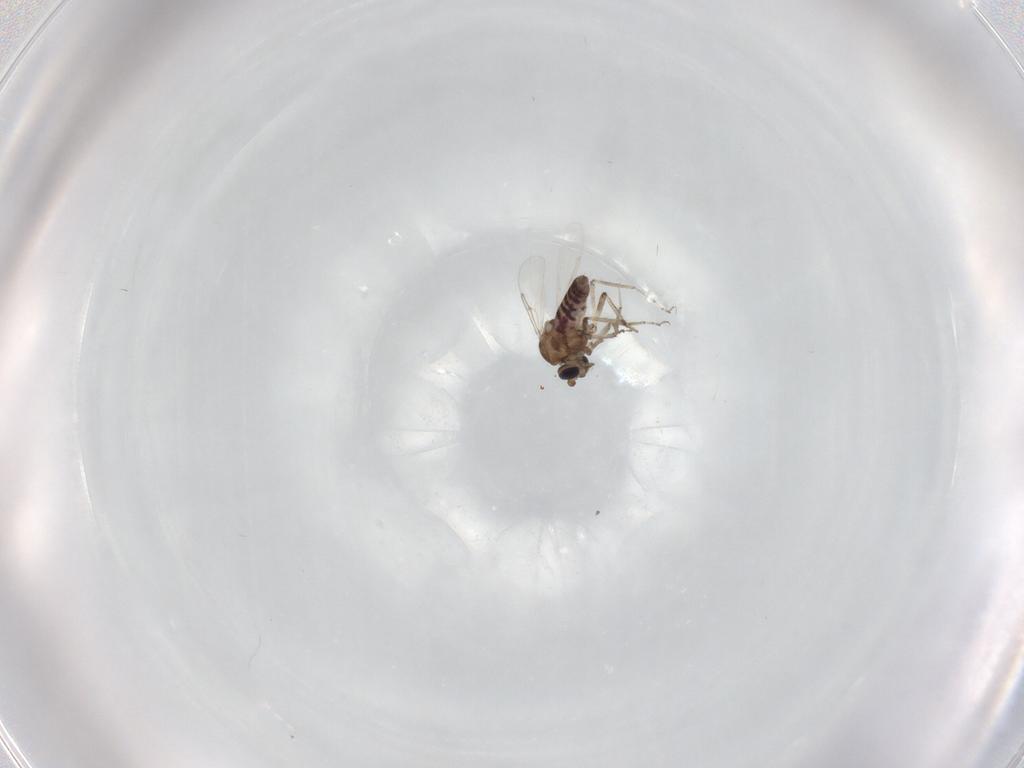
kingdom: Animalia
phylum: Arthropoda
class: Insecta
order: Diptera
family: Ceratopogonidae
